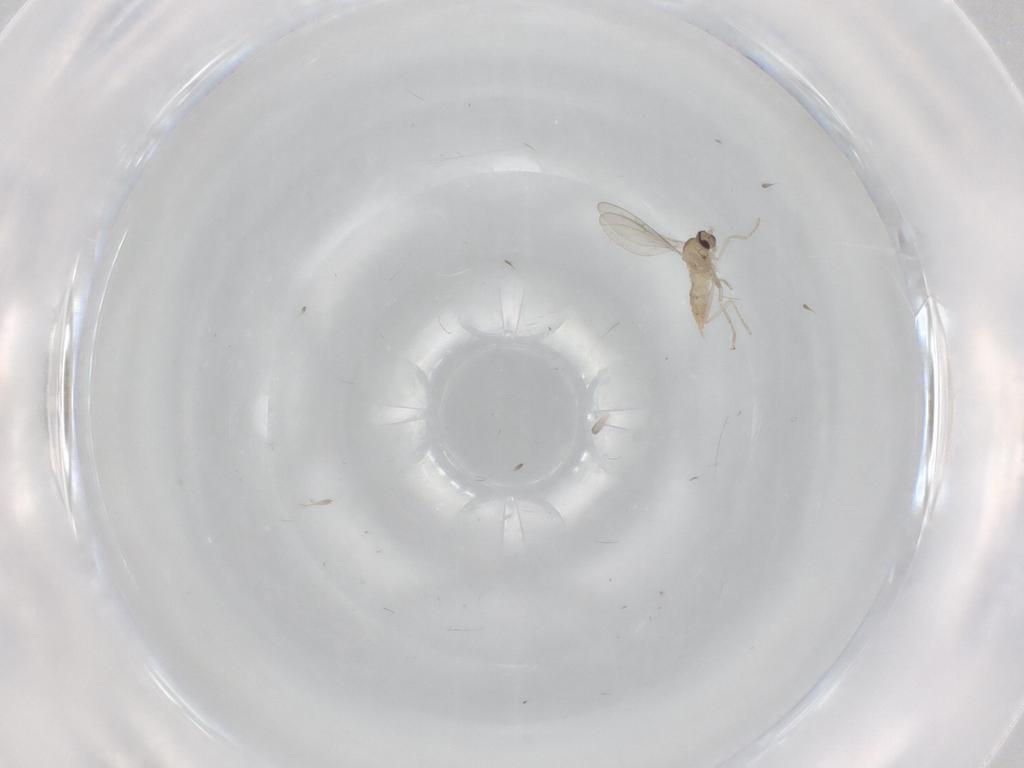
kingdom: Animalia
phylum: Arthropoda
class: Insecta
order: Diptera
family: Cecidomyiidae
